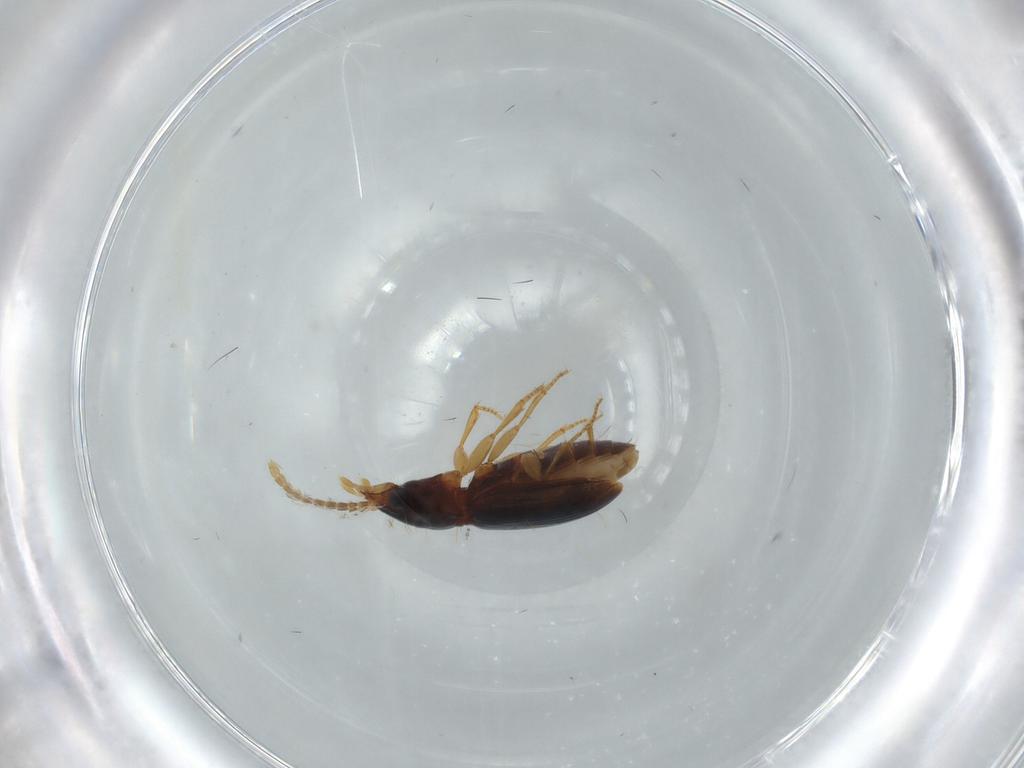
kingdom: Animalia
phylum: Arthropoda
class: Insecta
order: Coleoptera
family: Carabidae
